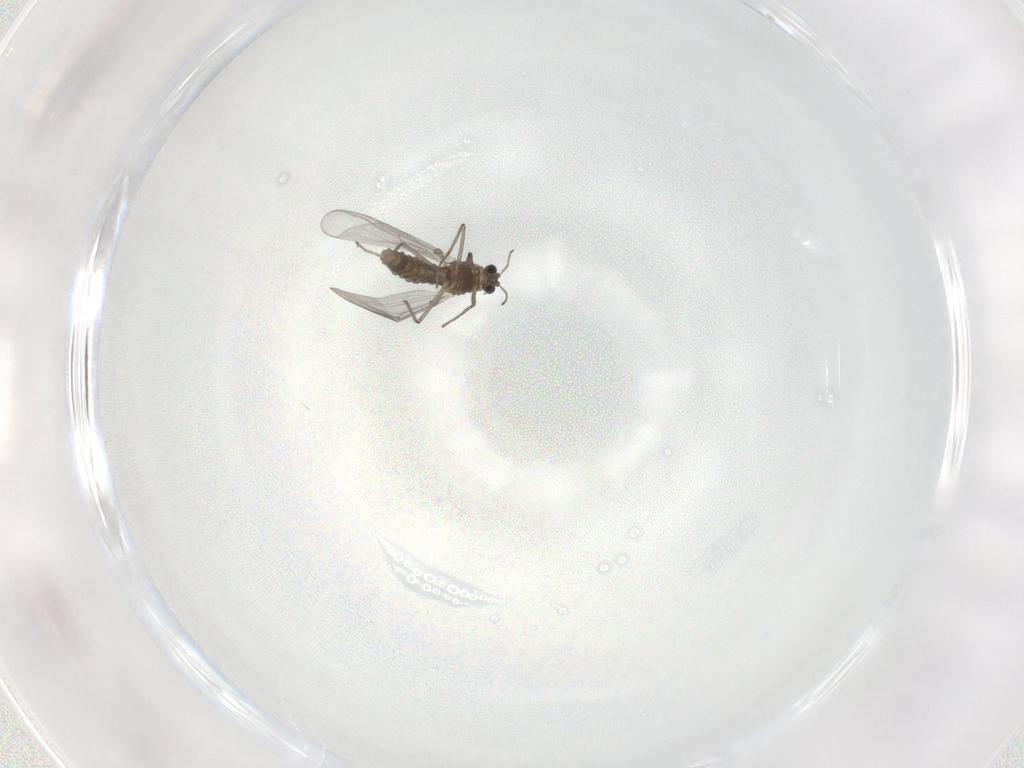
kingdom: Animalia
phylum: Arthropoda
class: Insecta
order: Diptera
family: Chironomidae
